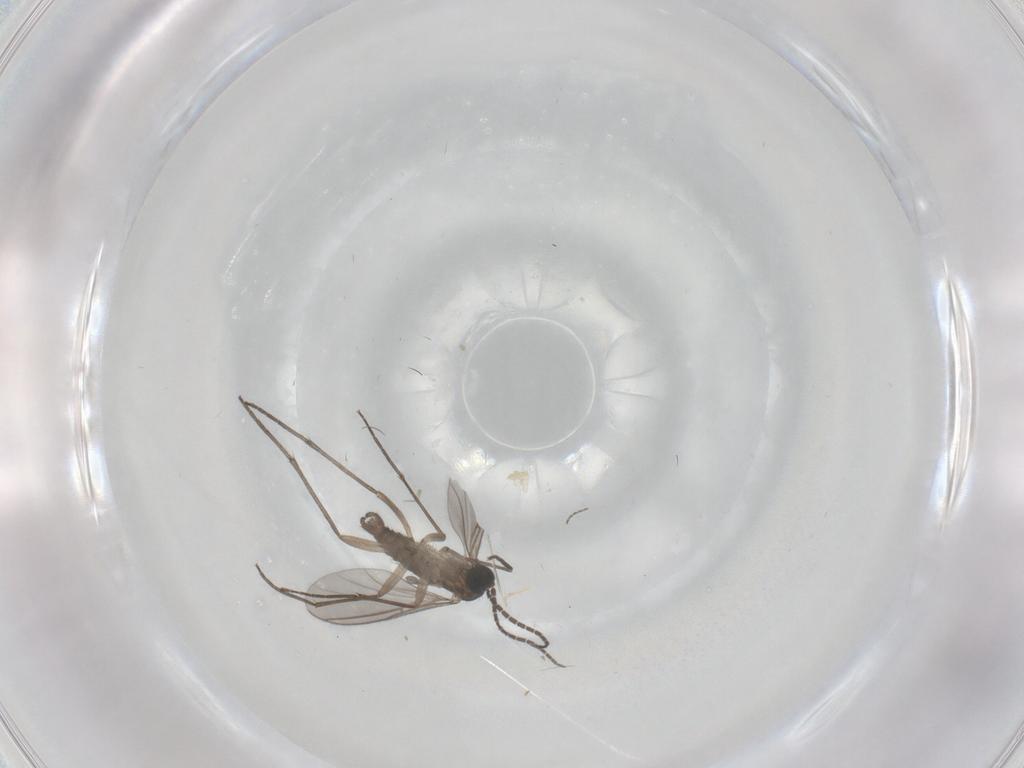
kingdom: Animalia
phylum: Arthropoda
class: Insecta
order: Diptera
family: Sciaridae
